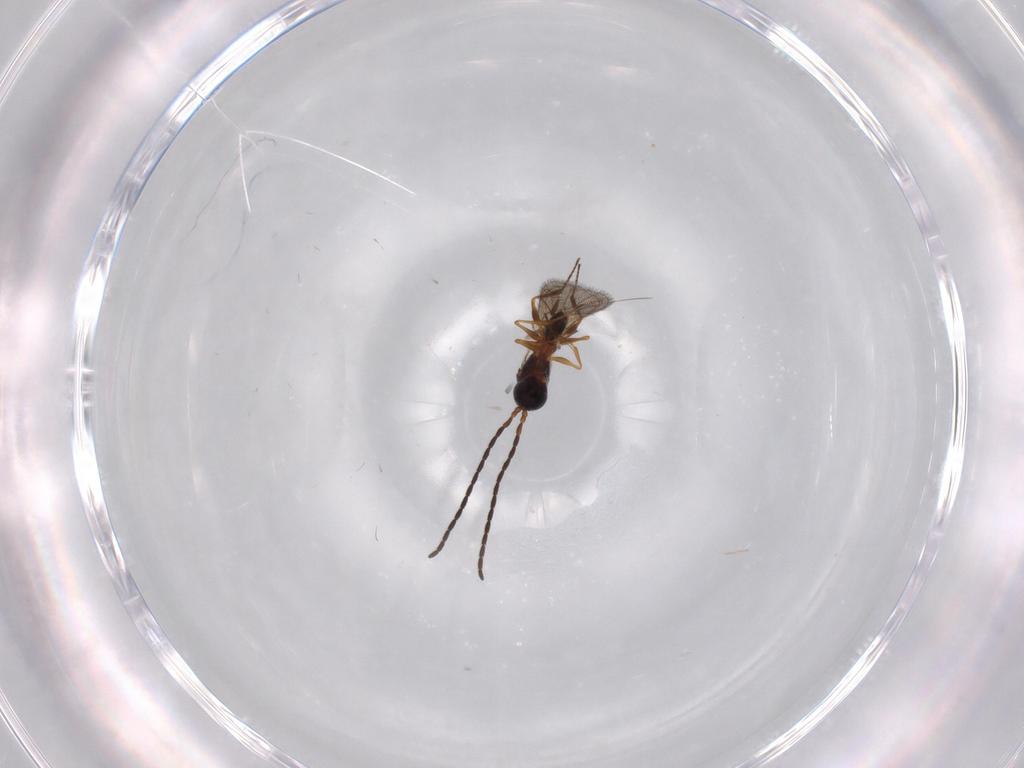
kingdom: Animalia
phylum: Arthropoda
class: Insecta
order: Hymenoptera
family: Figitidae
